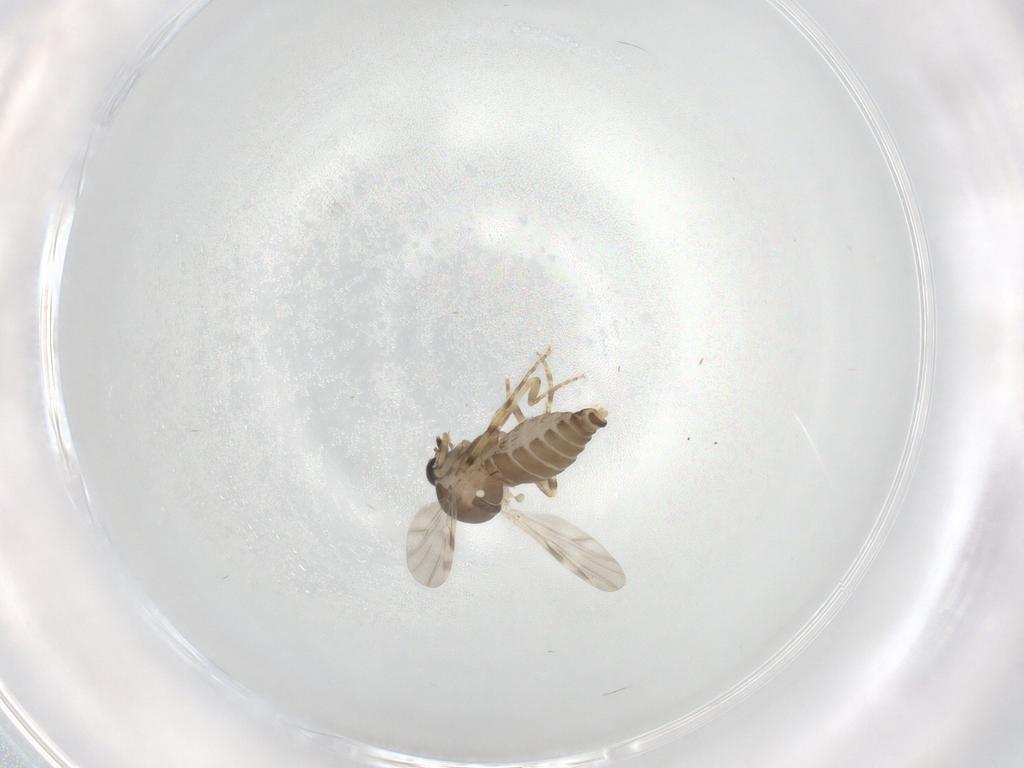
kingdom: Animalia
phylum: Arthropoda
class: Insecta
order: Diptera
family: Ceratopogonidae
